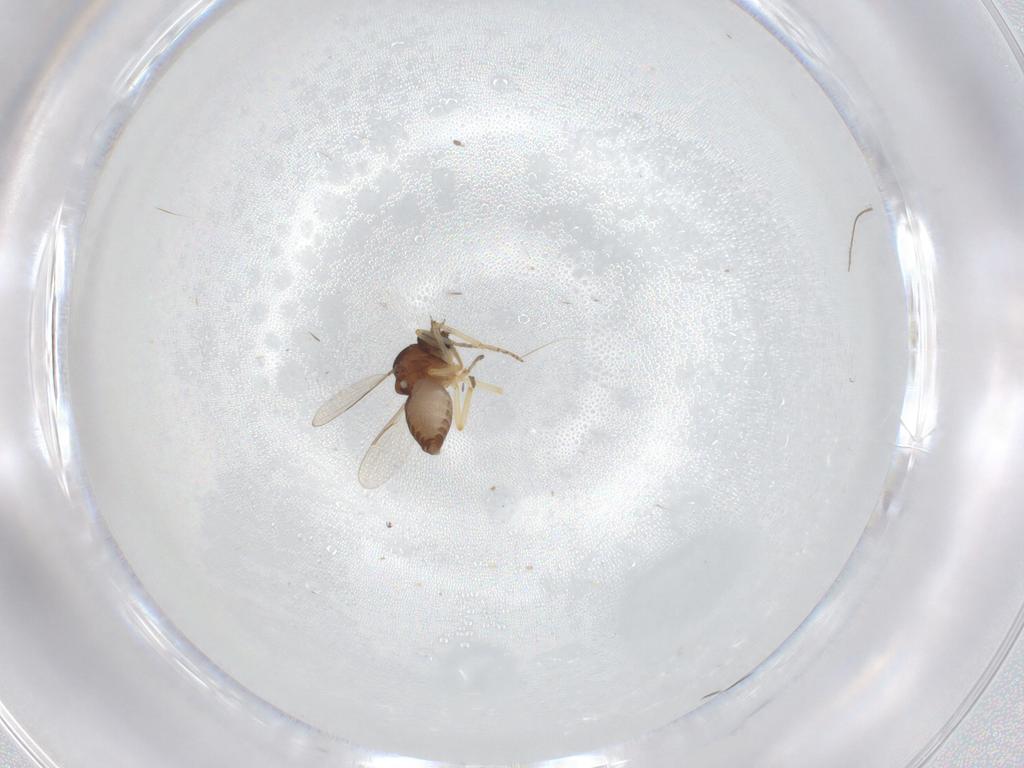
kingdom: Animalia
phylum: Arthropoda
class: Insecta
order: Diptera
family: Ceratopogonidae
